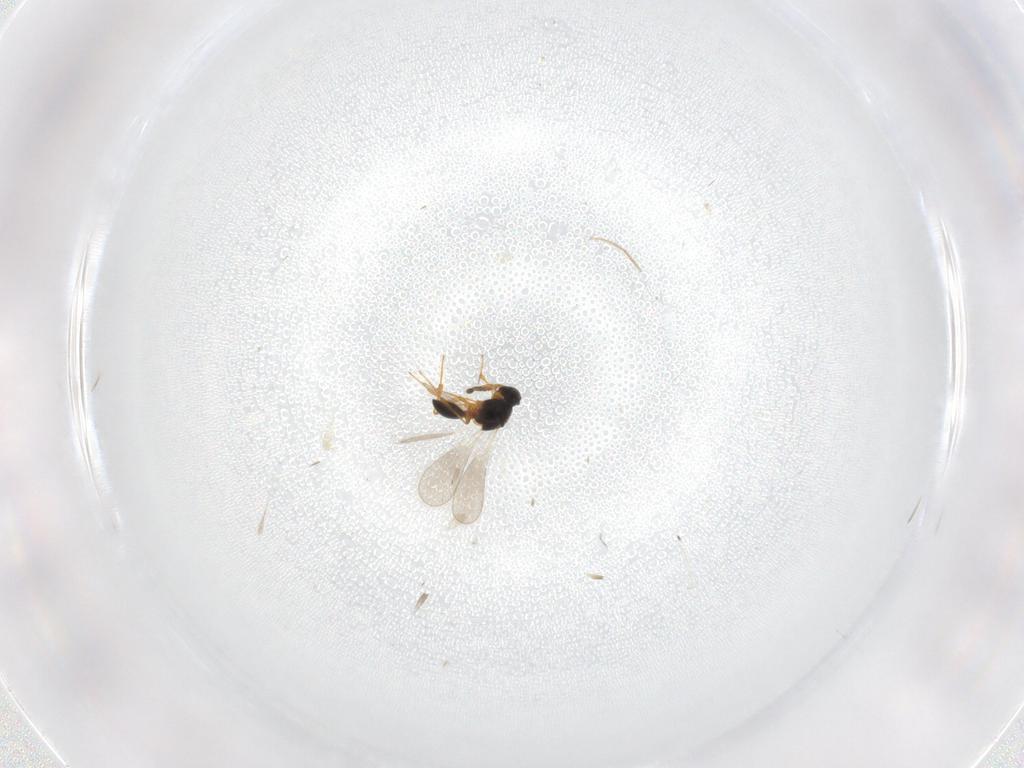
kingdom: Animalia
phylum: Arthropoda
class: Insecta
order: Hymenoptera
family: Platygastridae
